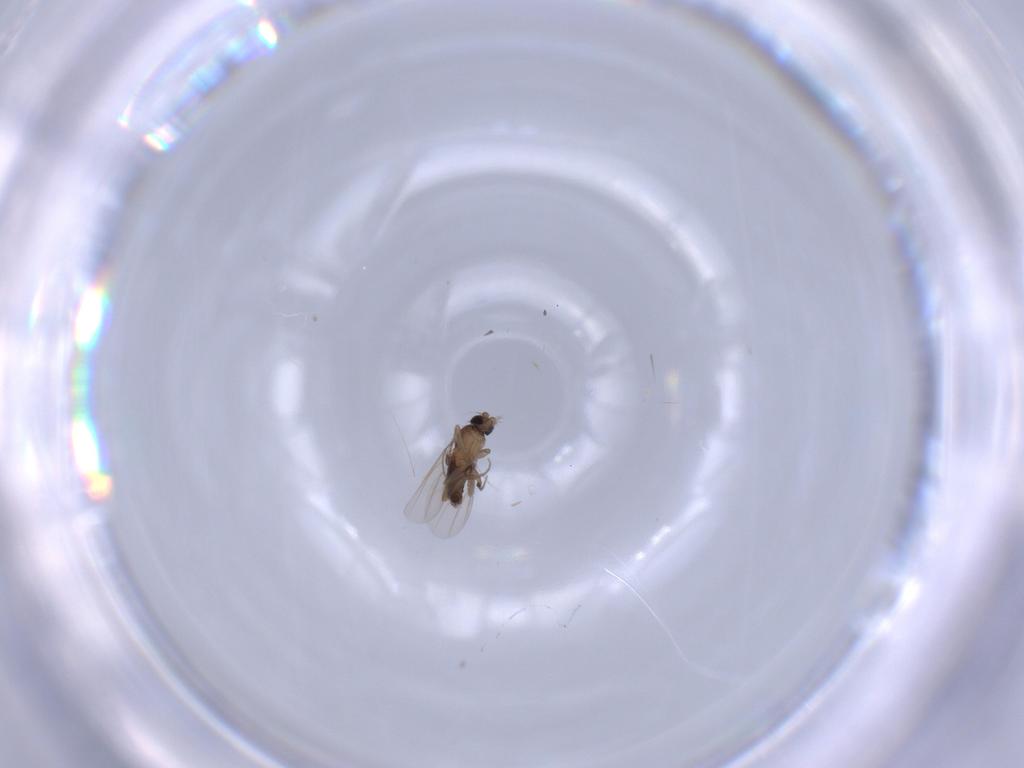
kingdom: Animalia
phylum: Arthropoda
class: Insecta
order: Diptera
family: Phoridae
